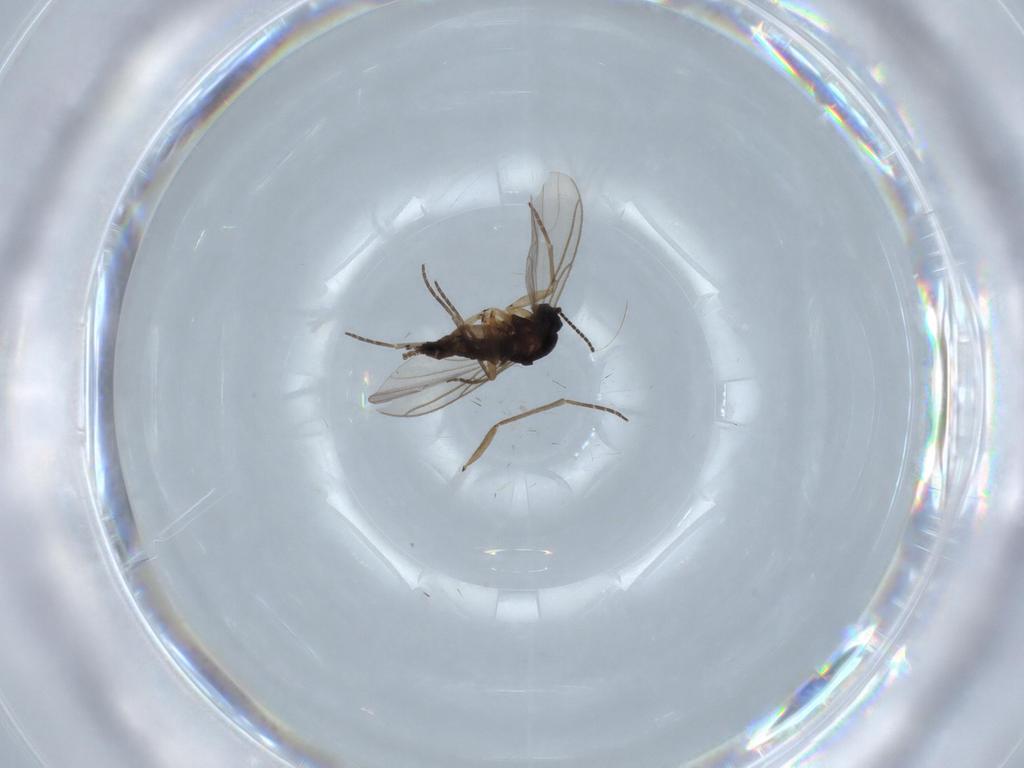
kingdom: Animalia
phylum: Arthropoda
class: Insecta
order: Diptera
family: Sciaridae
